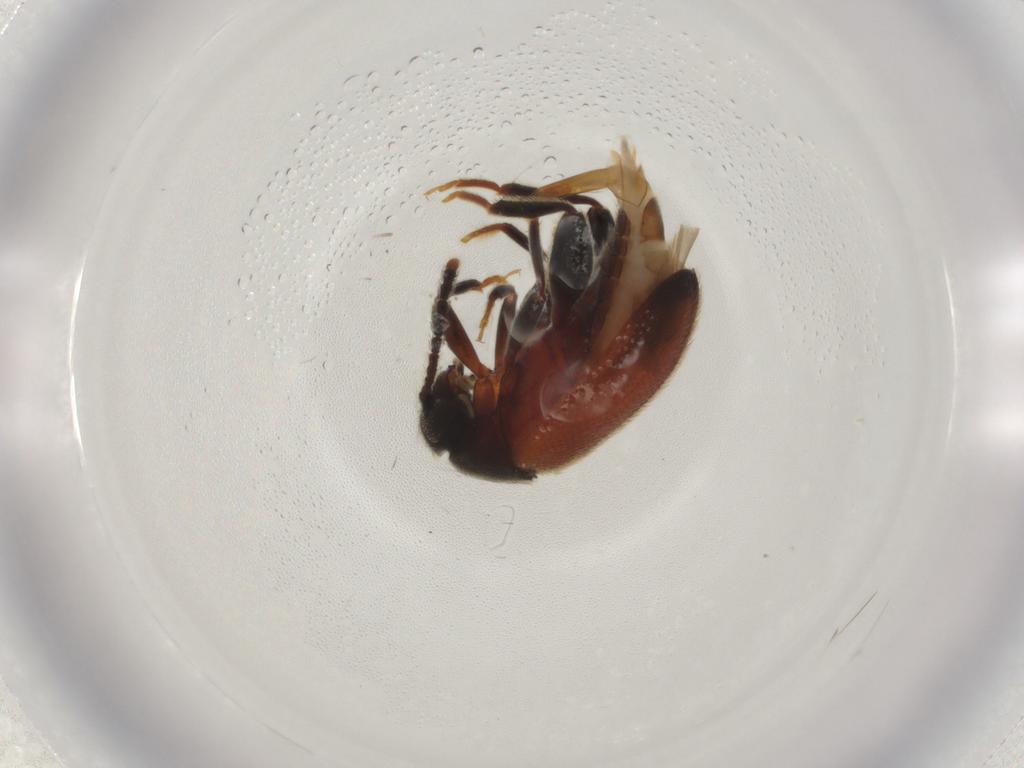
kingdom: Animalia
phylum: Arthropoda
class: Insecta
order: Coleoptera
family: Aderidae
